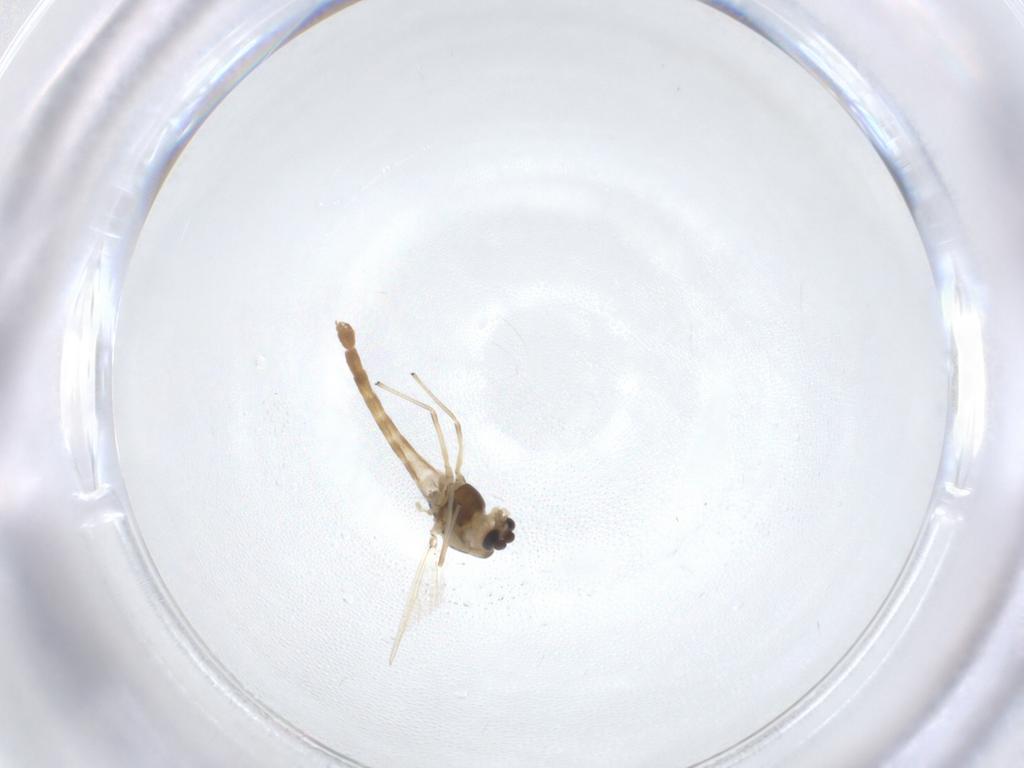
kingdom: Animalia
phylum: Arthropoda
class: Insecta
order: Diptera
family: Chironomidae
